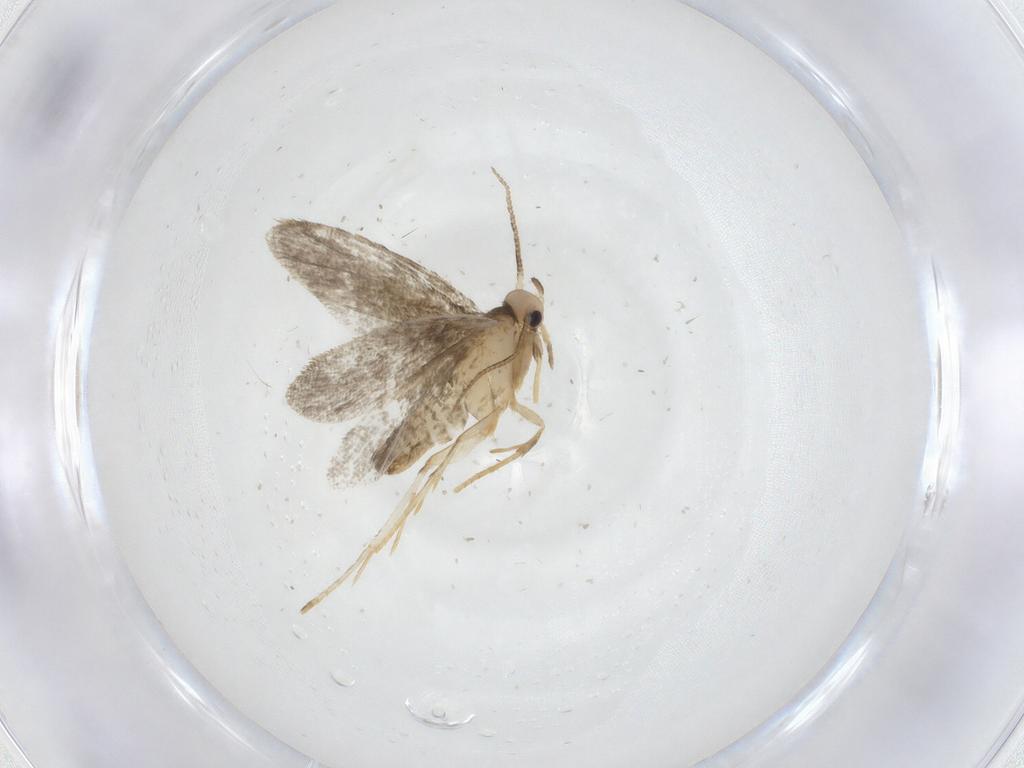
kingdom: Animalia
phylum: Arthropoda
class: Insecta
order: Lepidoptera
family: Psychidae
